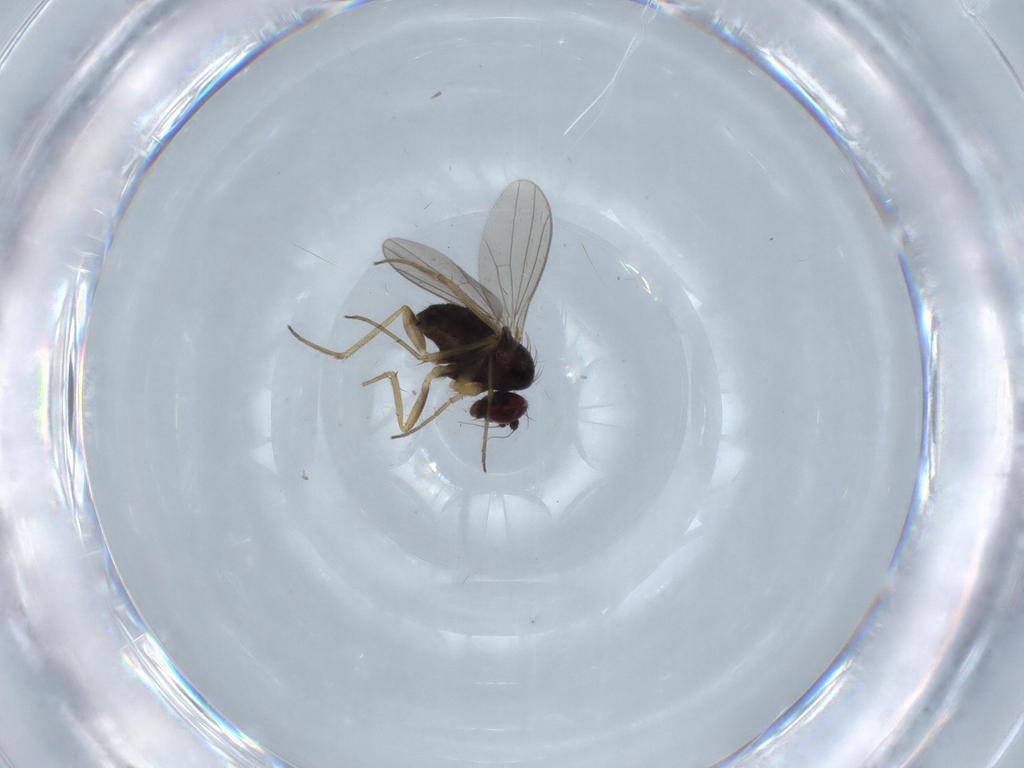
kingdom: Animalia
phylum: Arthropoda
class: Insecta
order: Diptera
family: Dolichopodidae
